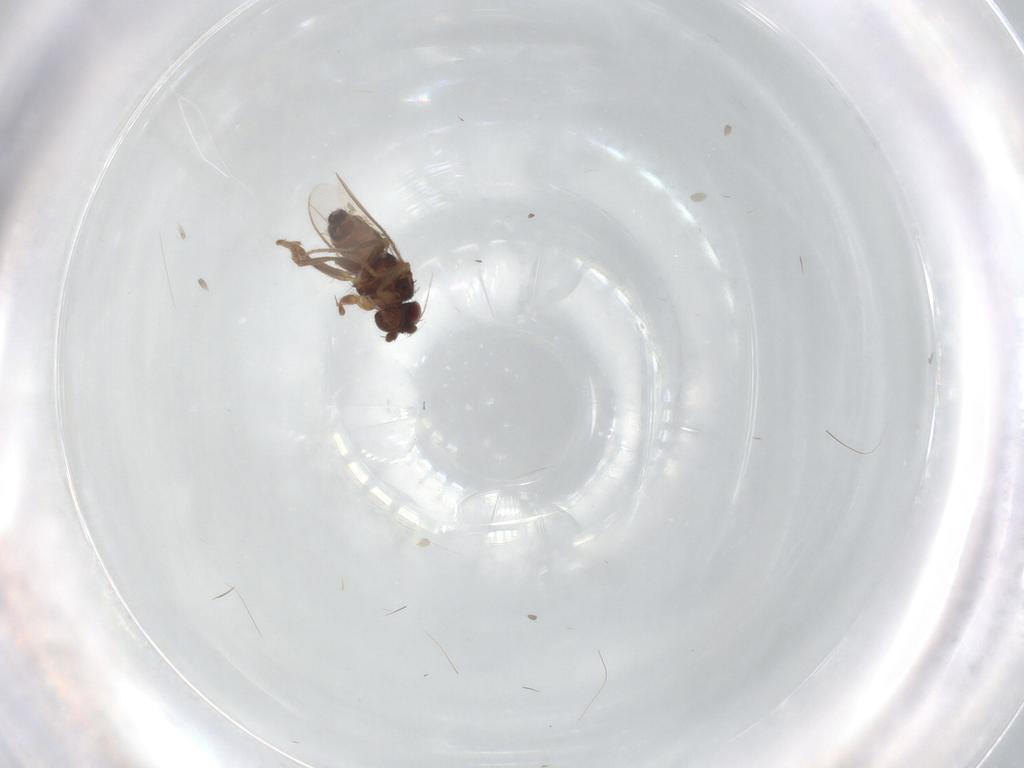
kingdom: Animalia
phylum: Arthropoda
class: Insecta
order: Diptera
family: Sphaeroceridae
